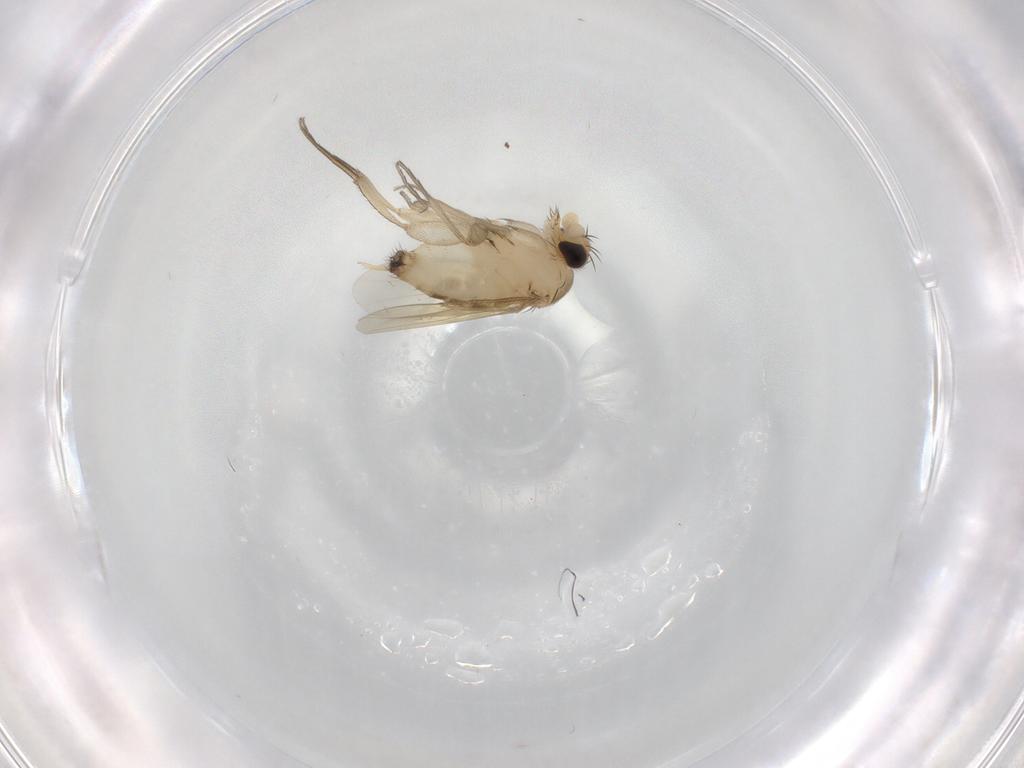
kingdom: Animalia
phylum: Arthropoda
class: Insecta
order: Diptera
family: Phoridae
